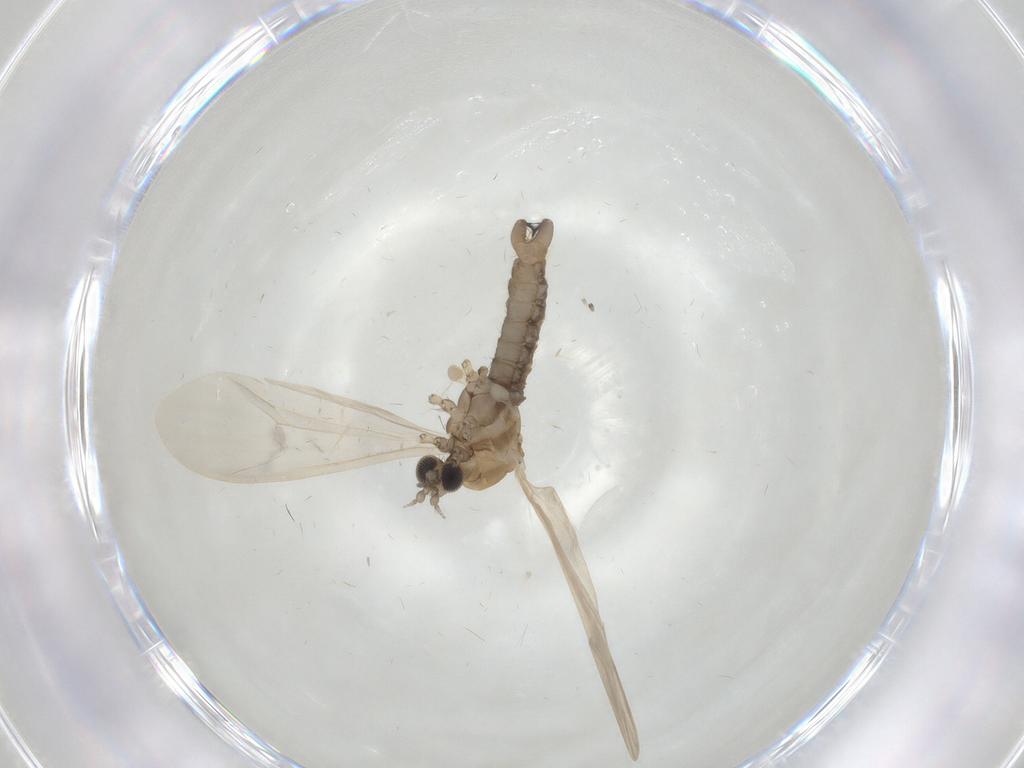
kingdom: Animalia
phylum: Arthropoda
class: Insecta
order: Diptera
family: Limoniidae
